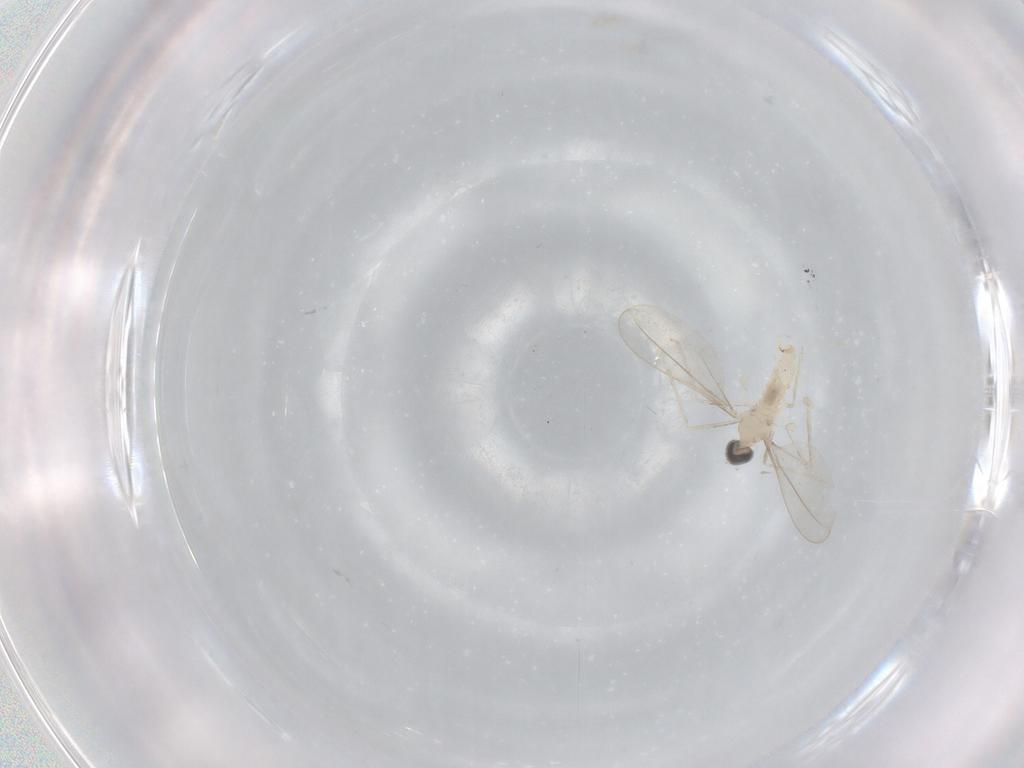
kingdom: Animalia
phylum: Arthropoda
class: Insecta
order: Diptera
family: Cecidomyiidae
